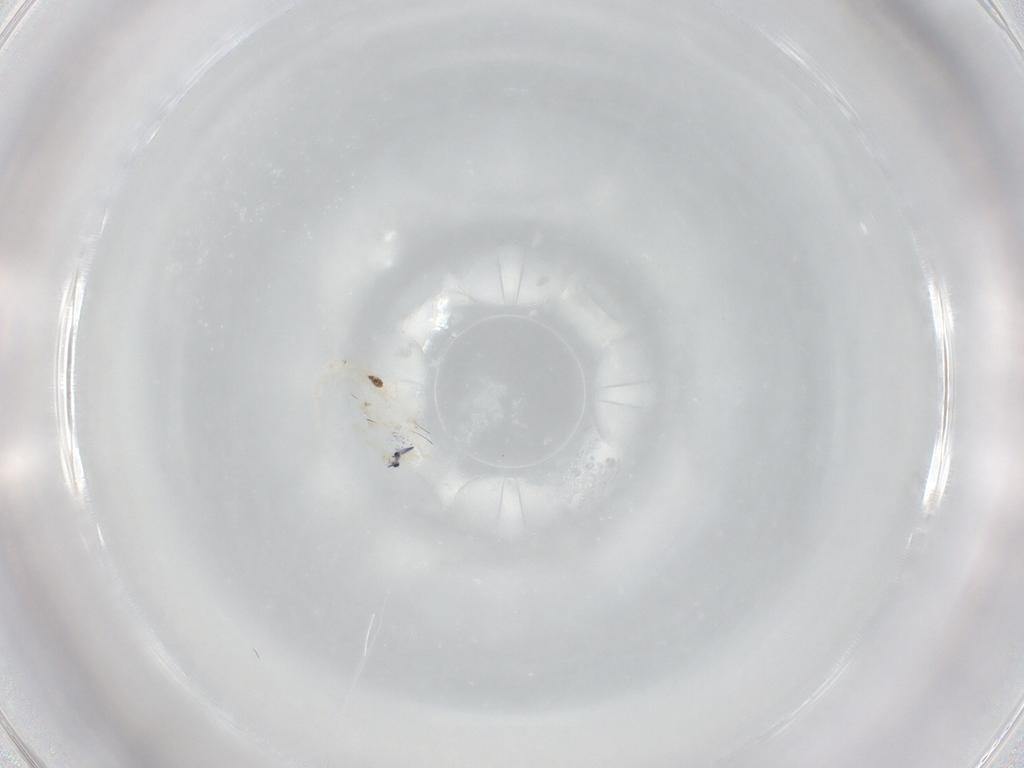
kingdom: Animalia
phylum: Arthropoda
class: Collembola
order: Entomobryomorpha
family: Entomobryidae
